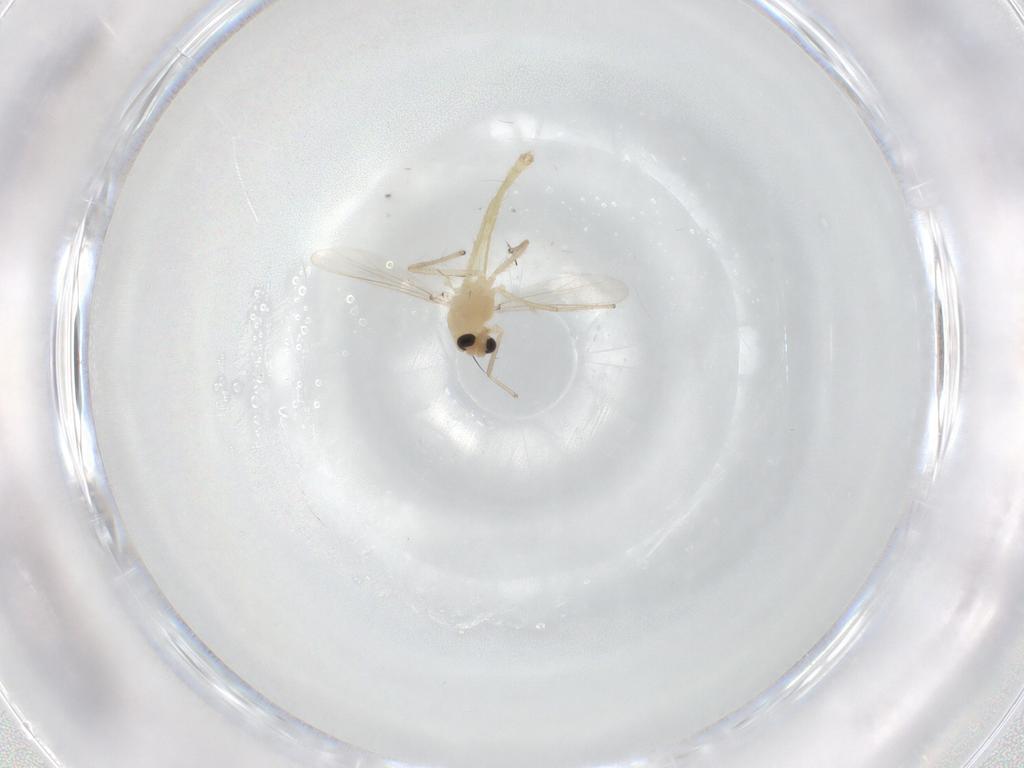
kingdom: Animalia
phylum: Arthropoda
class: Insecta
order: Diptera
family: Chironomidae
